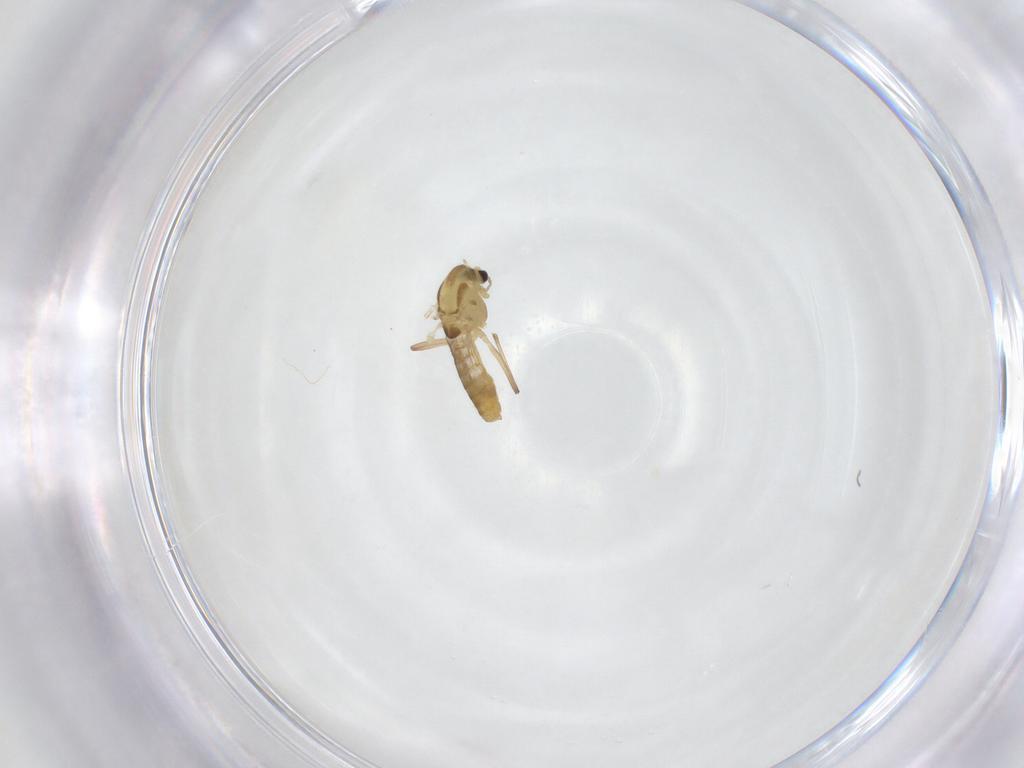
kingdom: Animalia
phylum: Arthropoda
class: Insecta
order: Diptera
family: Chironomidae
